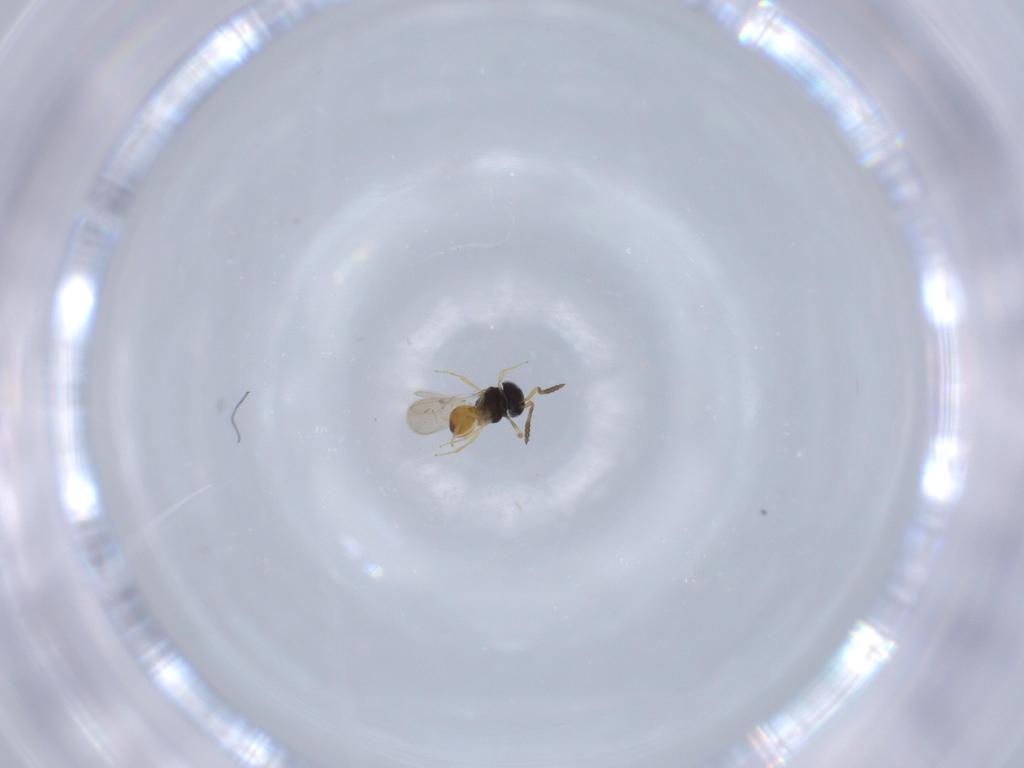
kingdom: Animalia
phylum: Arthropoda
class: Insecta
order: Hymenoptera
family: Scelionidae
